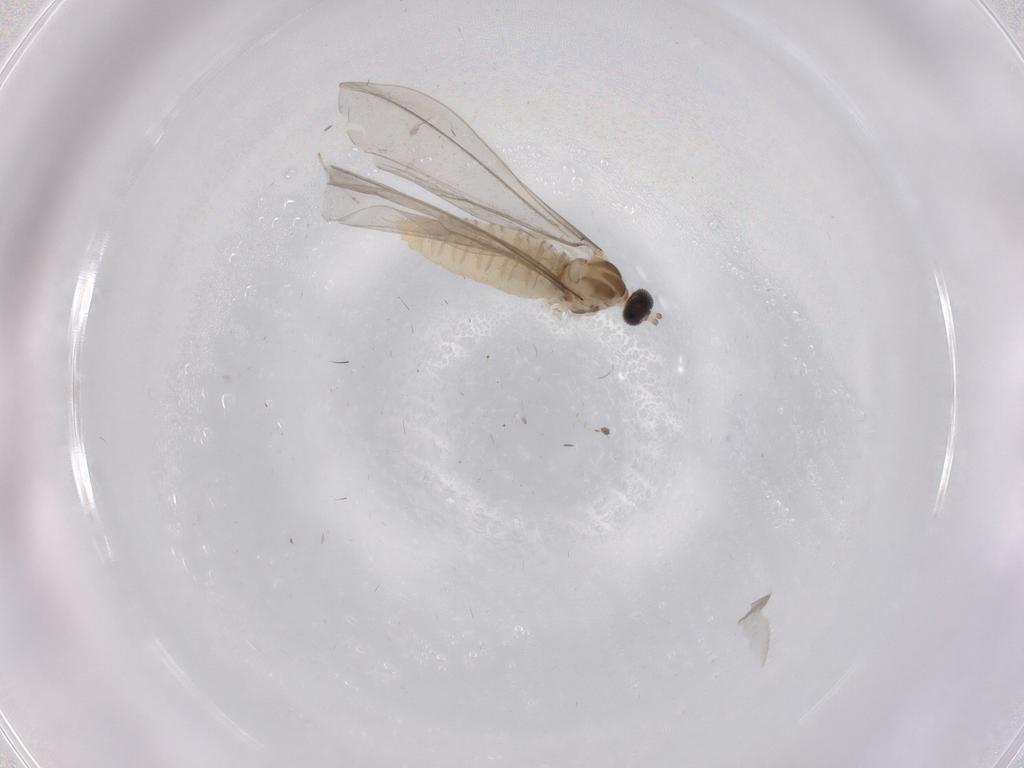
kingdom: Animalia
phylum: Arthropoda
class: Insecta
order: Diptera
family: Cecidomyiidae
